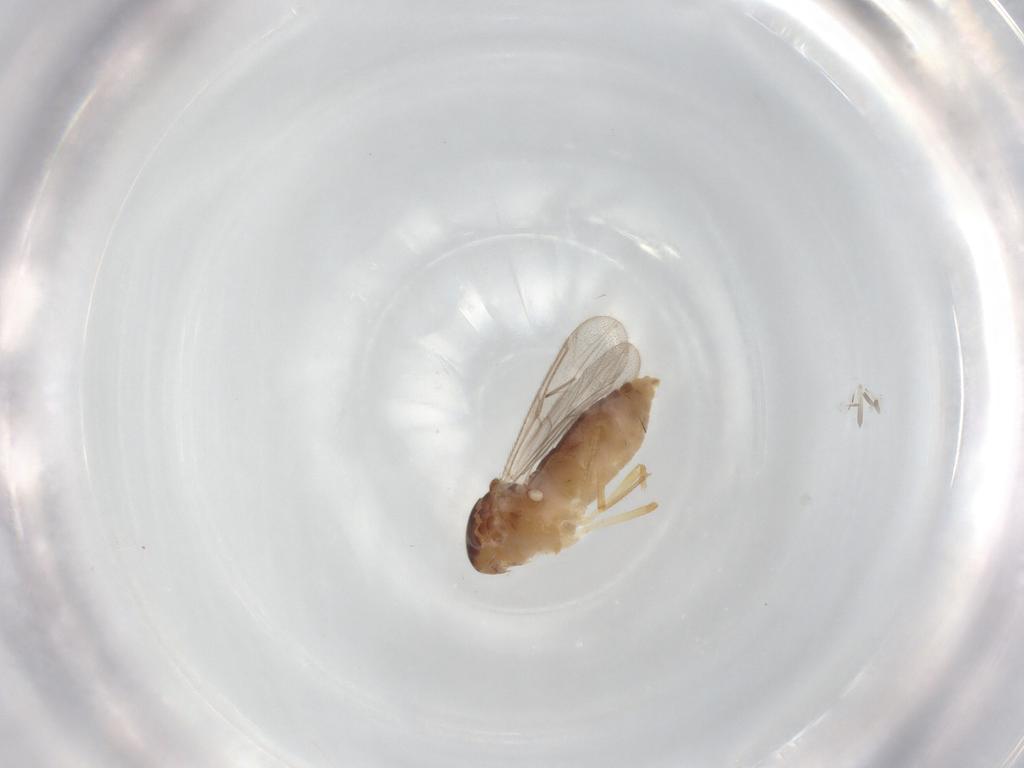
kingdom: Animalia
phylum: Arthropoda
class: Insecta
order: Diptera
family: Ceratopogonidae
